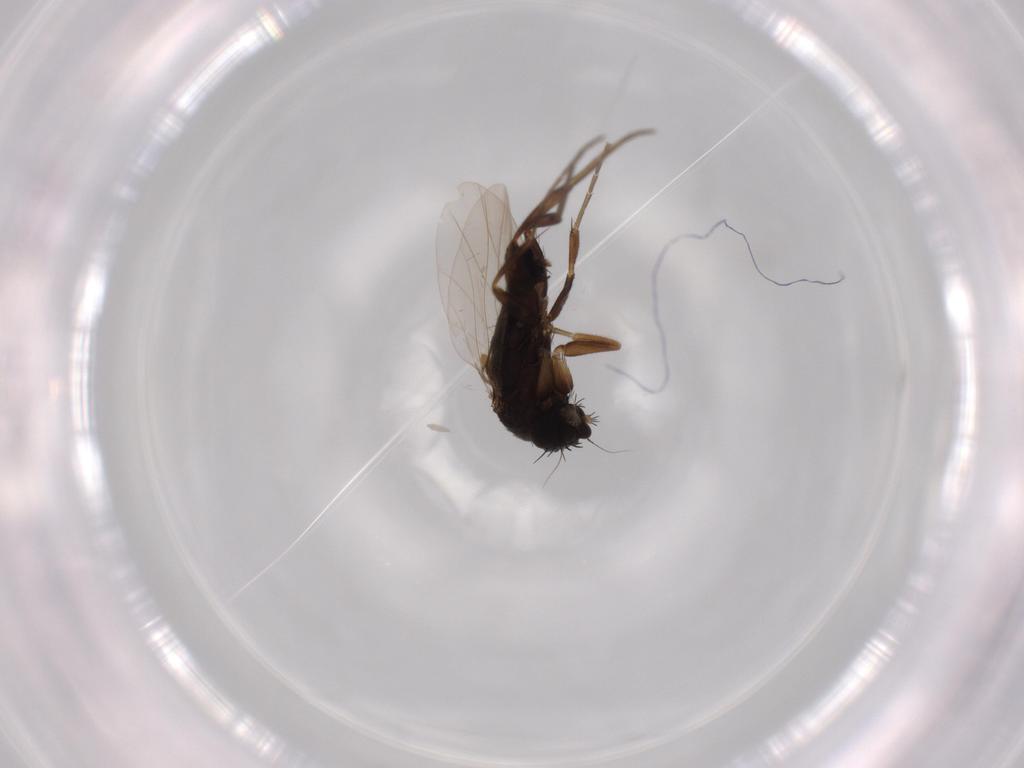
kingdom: Animalia
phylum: Arthropoda
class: Insecta
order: Diptera
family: Phoridae
